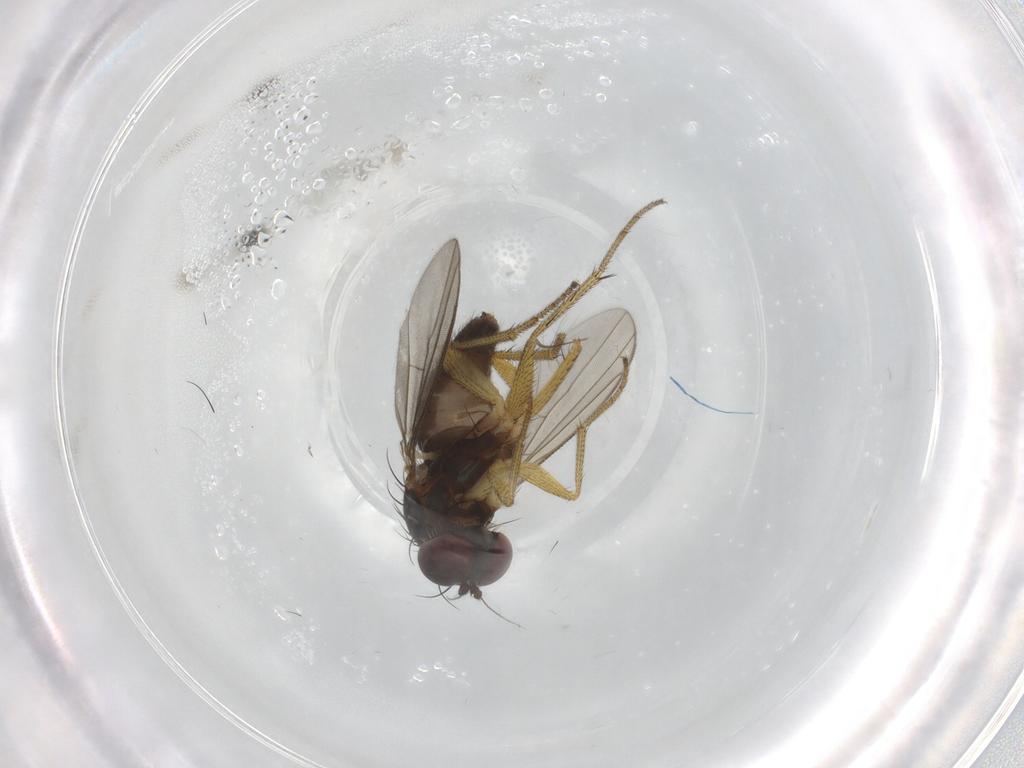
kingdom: Animalia
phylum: Arthropoda
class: Insecta
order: Diptera
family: Dolichopodidae
